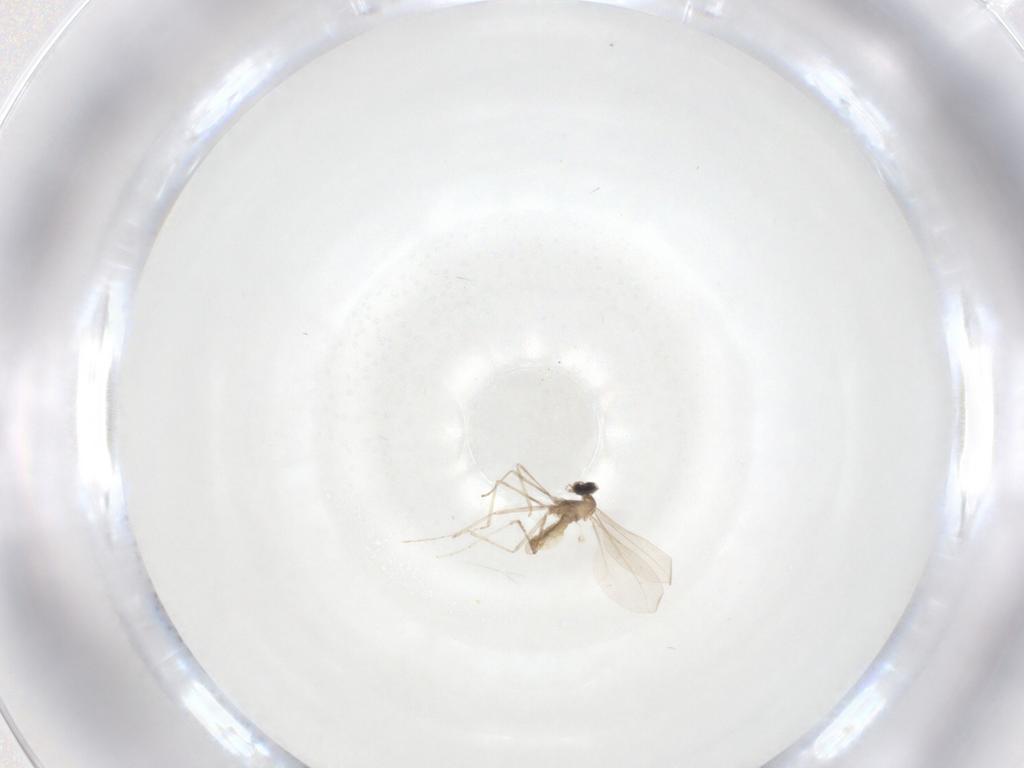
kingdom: Animalia
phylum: Arthropoda
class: Insecta
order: Diptera
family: Cecidomyiidae
